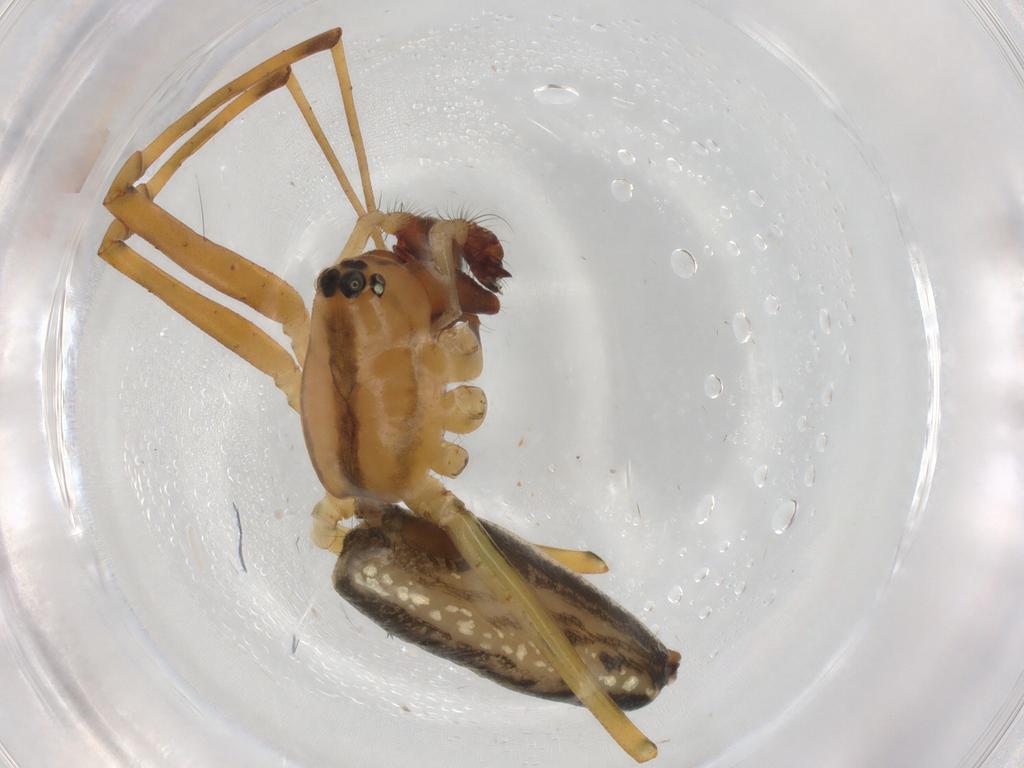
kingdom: Animalia
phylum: Arthropoda
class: Arachnida
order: Araneae
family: Linyphiidae
